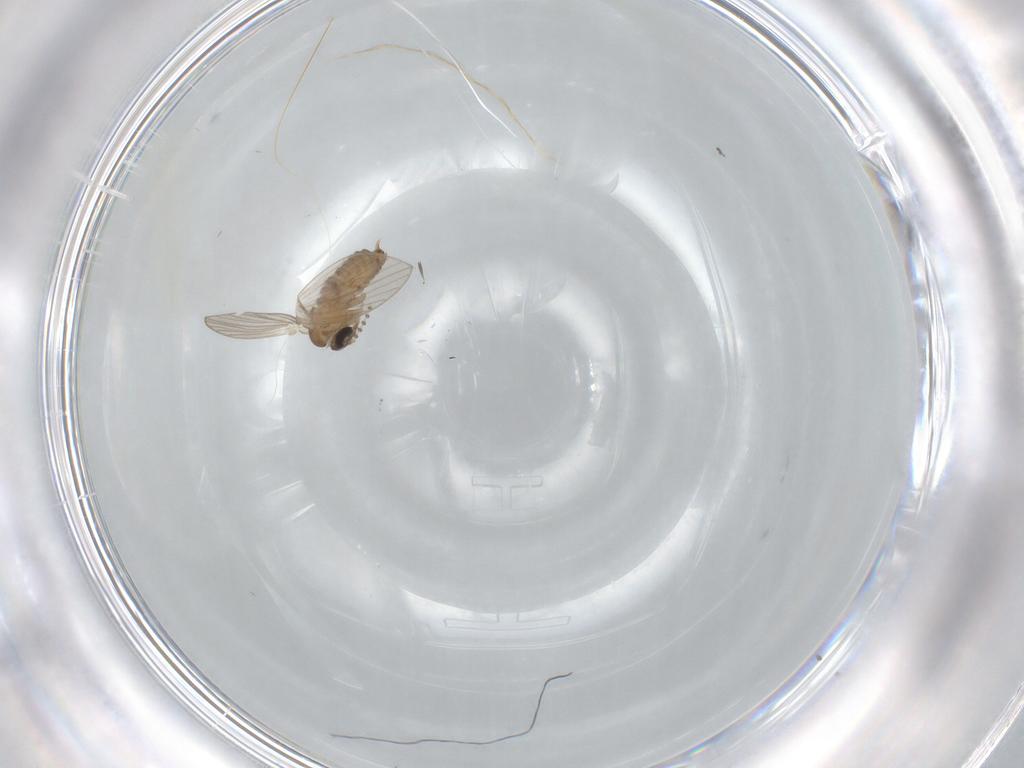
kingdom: Animalia
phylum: Arthropoda
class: Insecta
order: Diptera
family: Psychodidae
